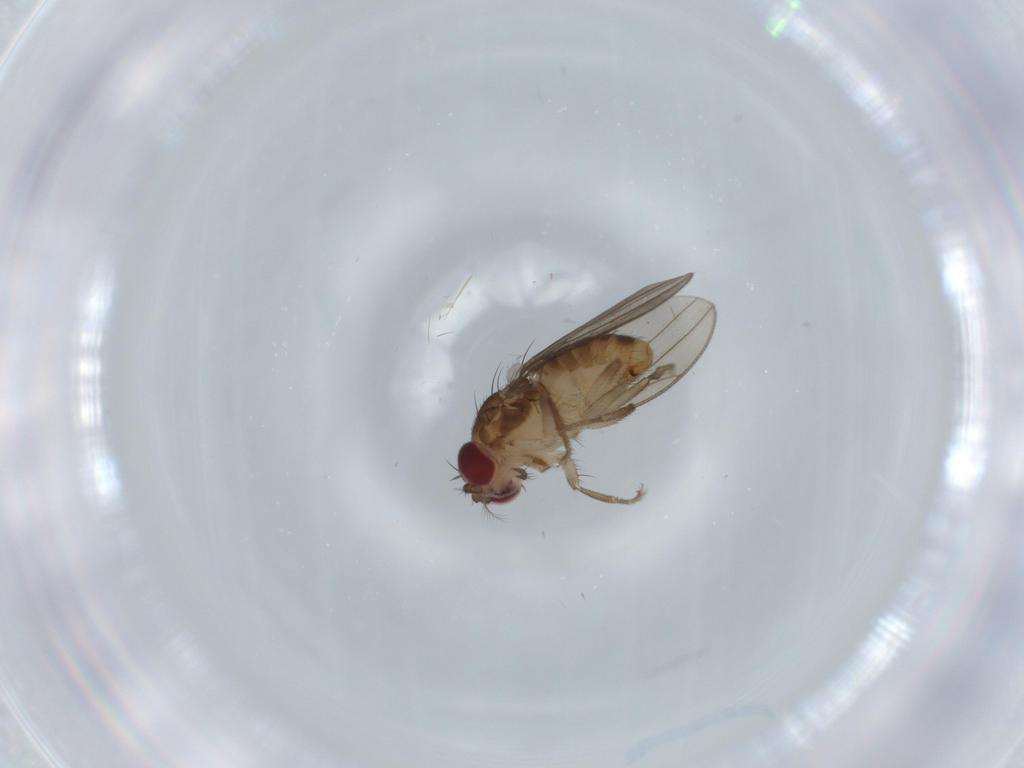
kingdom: Animalia
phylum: Arthropoda
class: Insecta
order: Diptera
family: Drosophilidae
